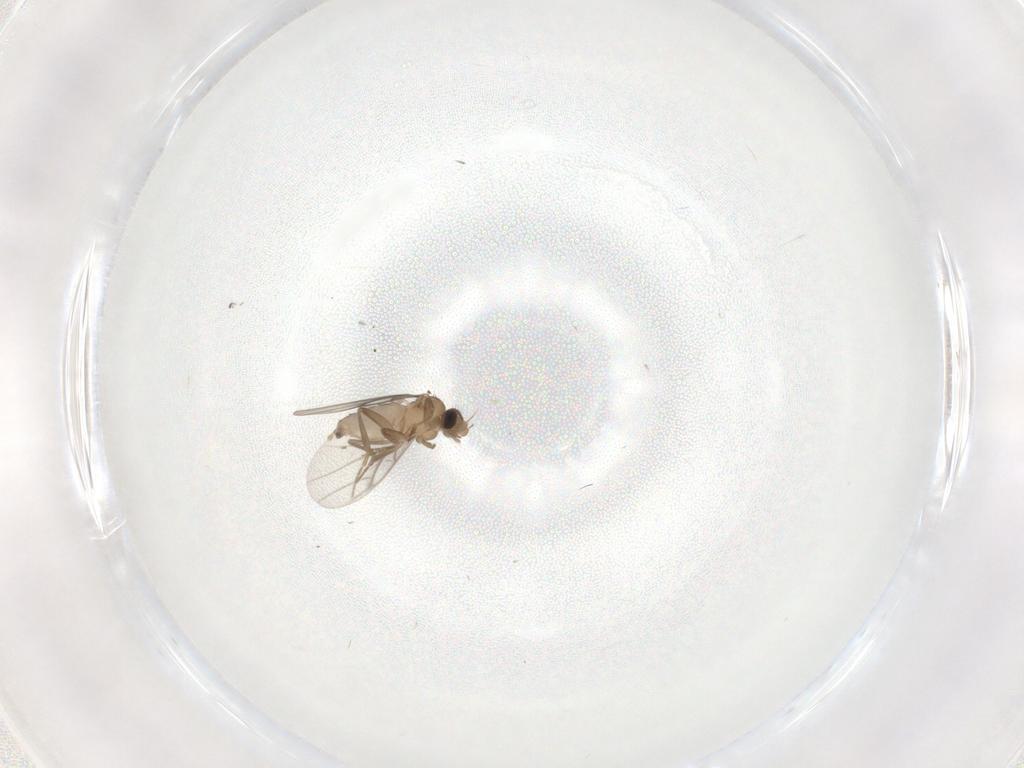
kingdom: Animalia
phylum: Arthropoda
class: Insecta
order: Diptera
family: Chironomidae
